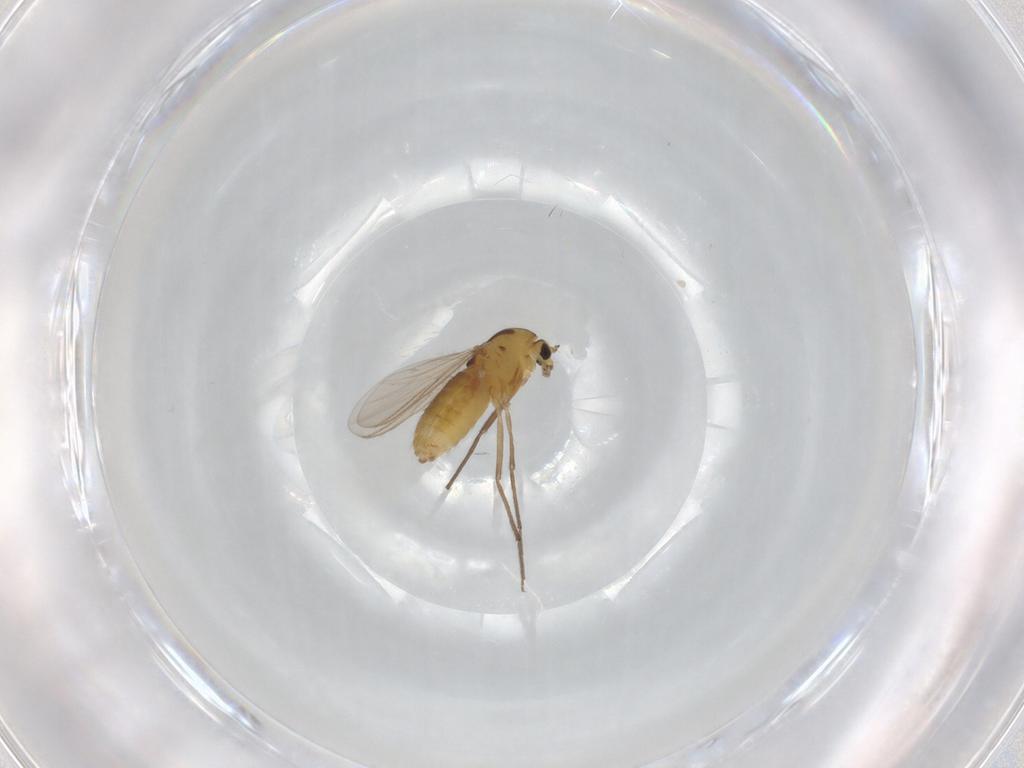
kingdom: Animalia
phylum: Arthropoda
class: Insecta
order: Diptera
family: Chironomidae
